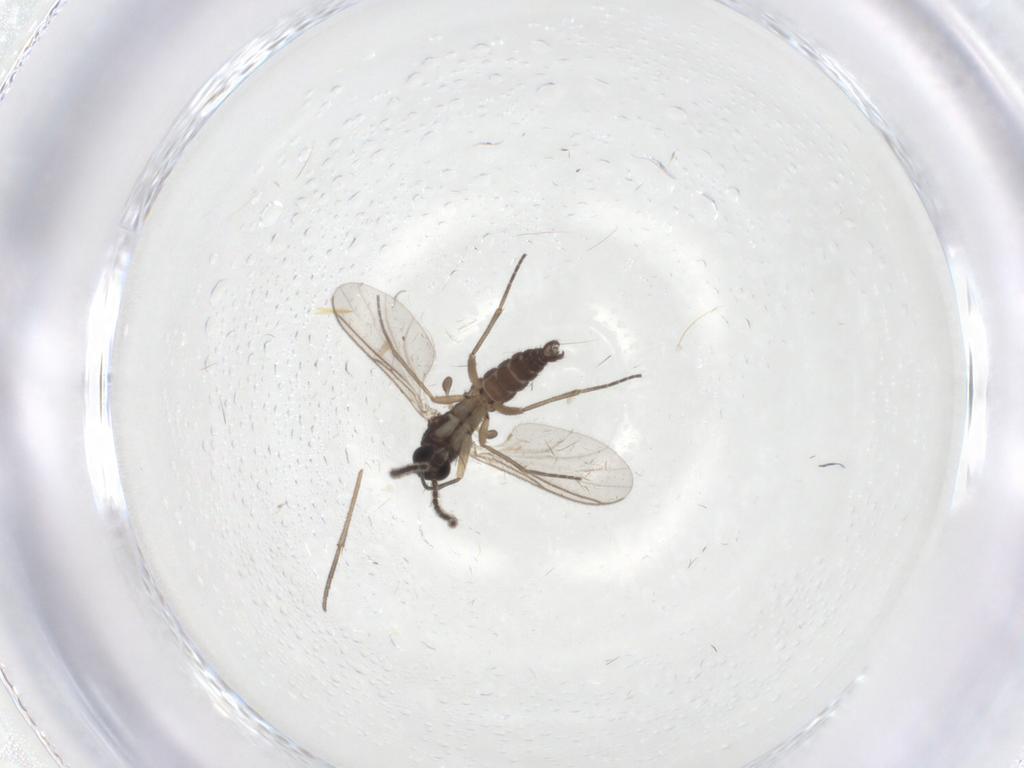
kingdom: Animalia
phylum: Arthropoda
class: Insecta
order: Diptera
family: Sciaridae
